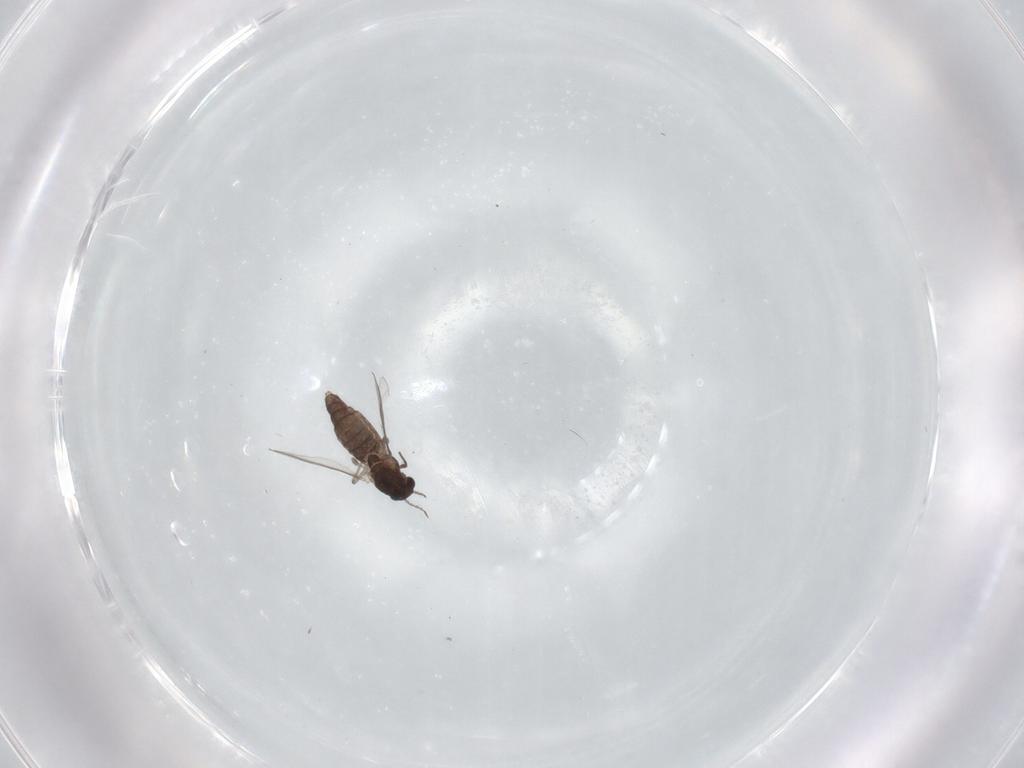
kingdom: Animalia
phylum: Arthropoda
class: Insecta
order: Diptera
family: Chironomidae
